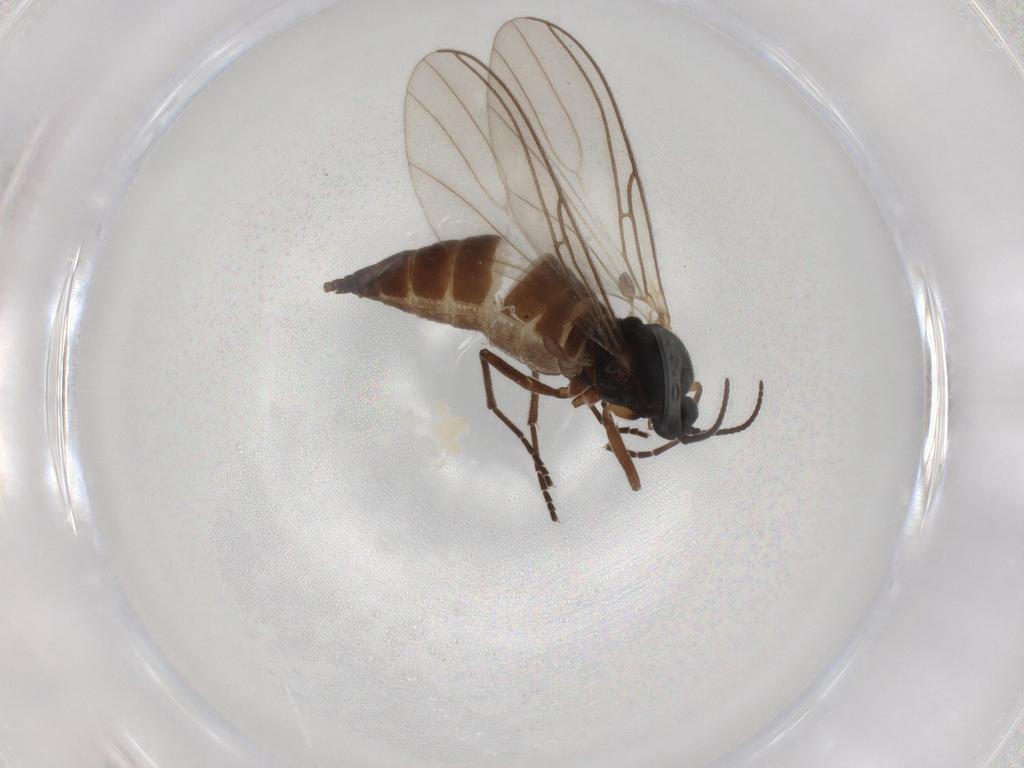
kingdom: Animalia
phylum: Arthropoda
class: Insecta
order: Diptera
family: Sciaridae
